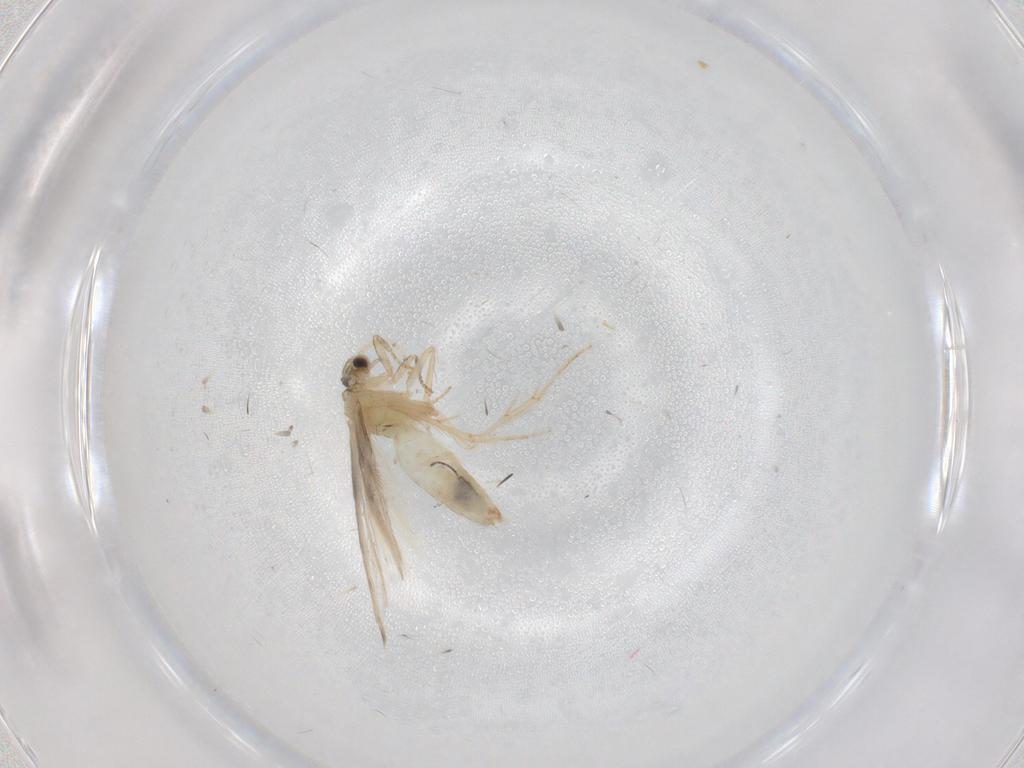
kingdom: Animalia
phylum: Arthropoda
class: Insecta
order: Trichoptera
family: Hydroptilidae
